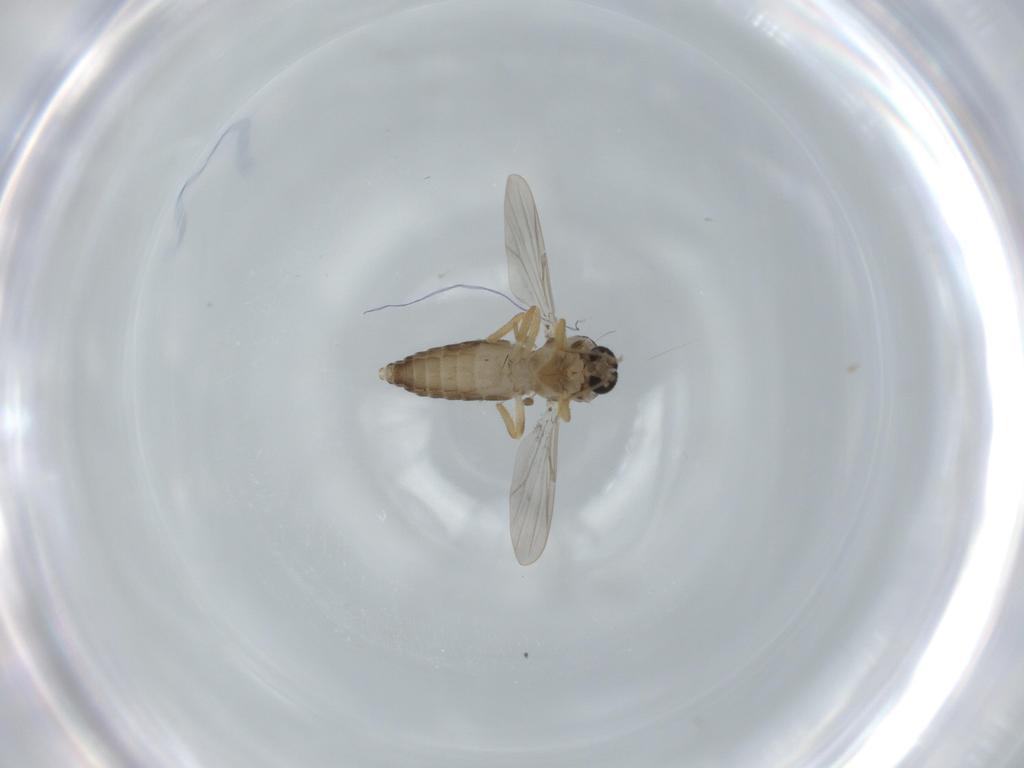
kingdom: Animalia
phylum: Arthropoda
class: Insecta
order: Diptera
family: Ceratopogonidae
